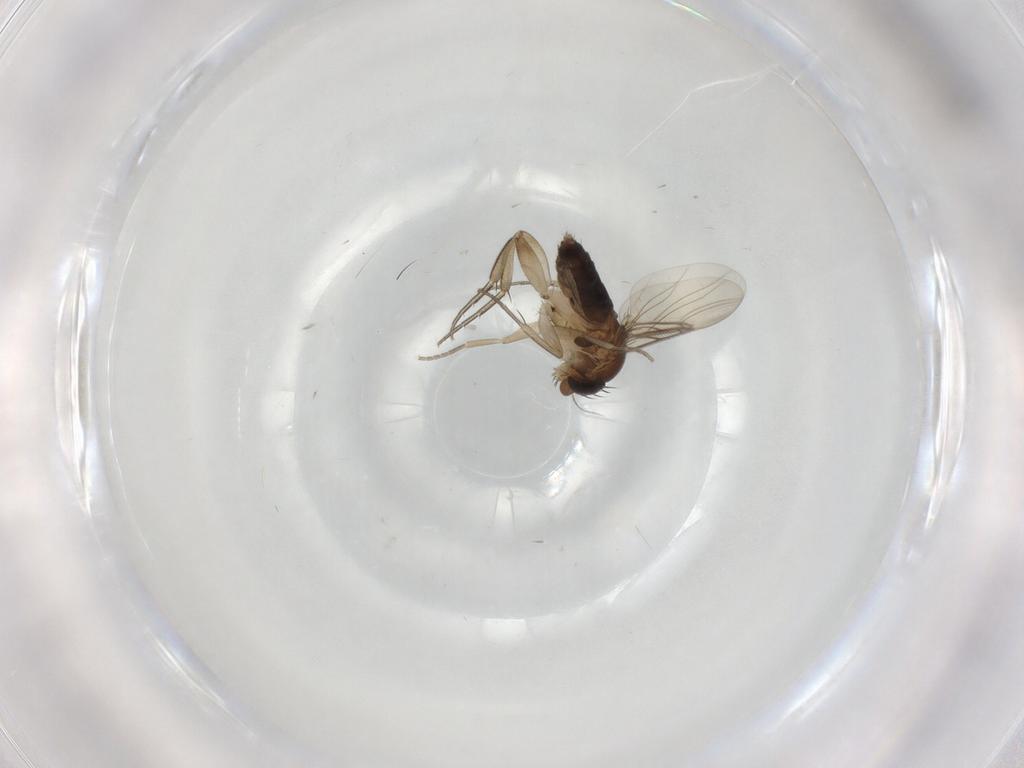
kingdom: Animalia
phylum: Arthropoda
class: Insecta
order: Diptera
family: Phoridae
